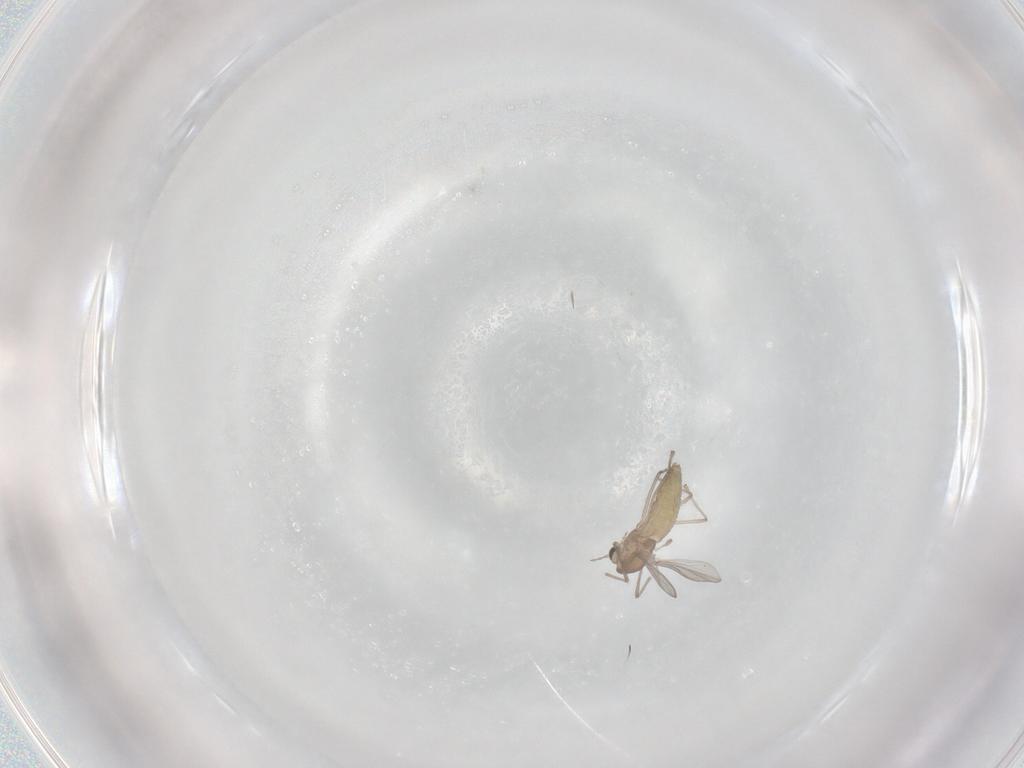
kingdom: Animalia
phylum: Arthropoda
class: Insecta
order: Diptera
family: Chironomidae
